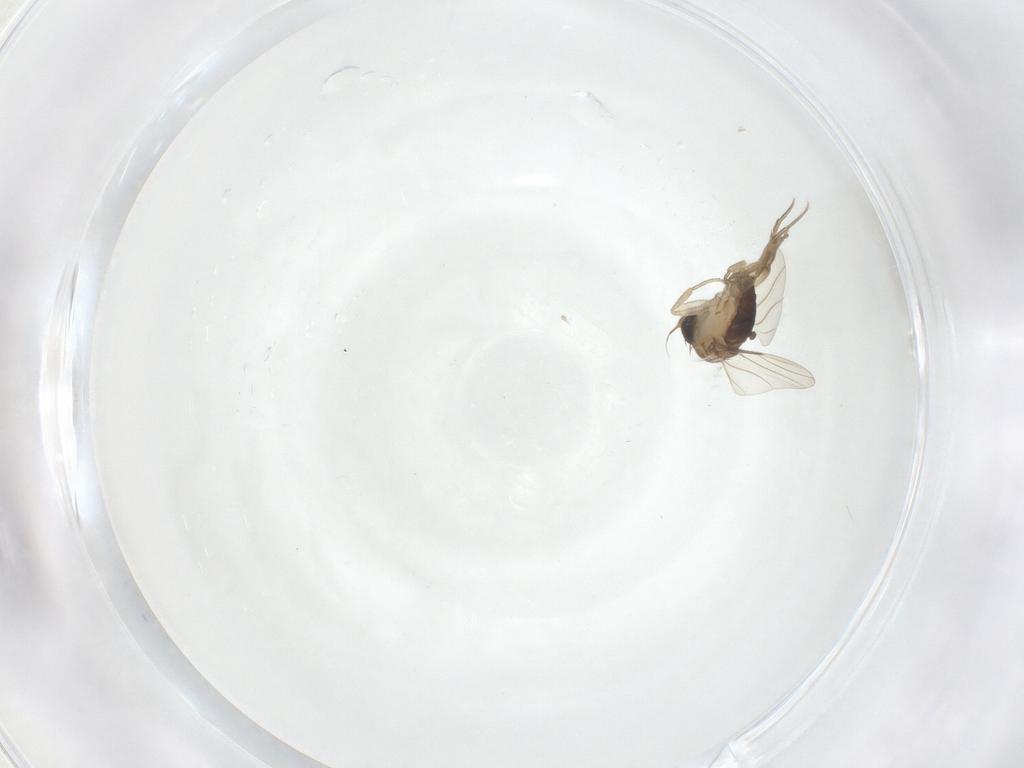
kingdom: Animalia
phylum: Arthropoda
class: Insecta
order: Diptera
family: Phoridae
